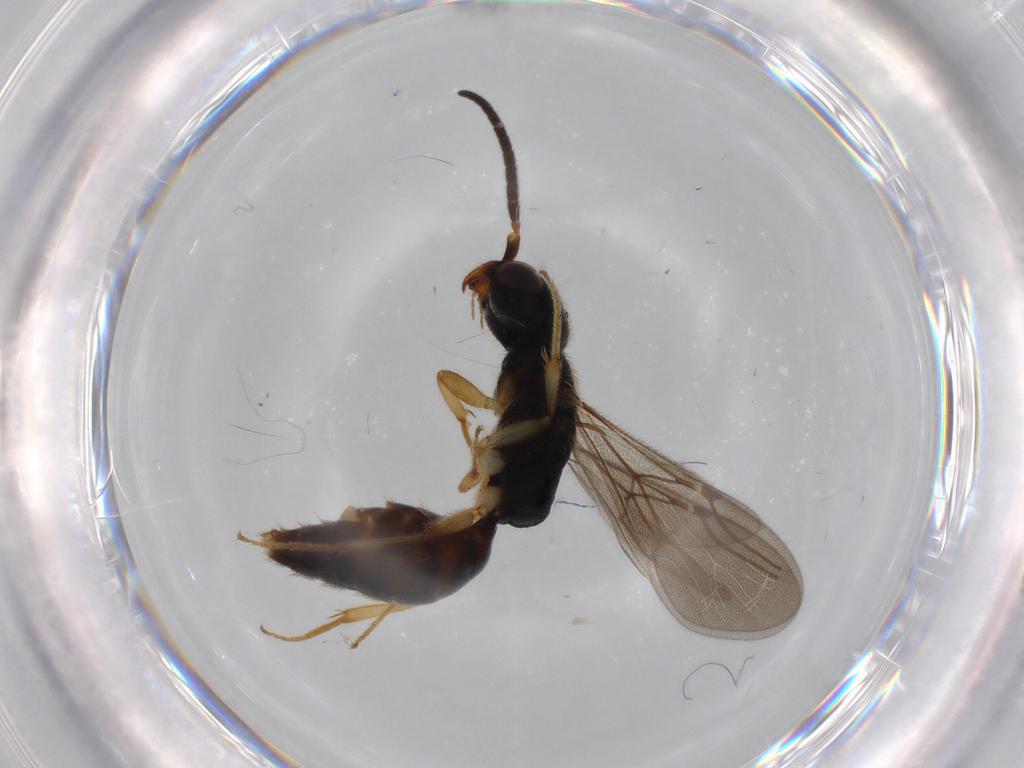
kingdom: Animalia
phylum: Arthropoda
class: Insecta
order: Hymenoptera
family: Bethylidae
